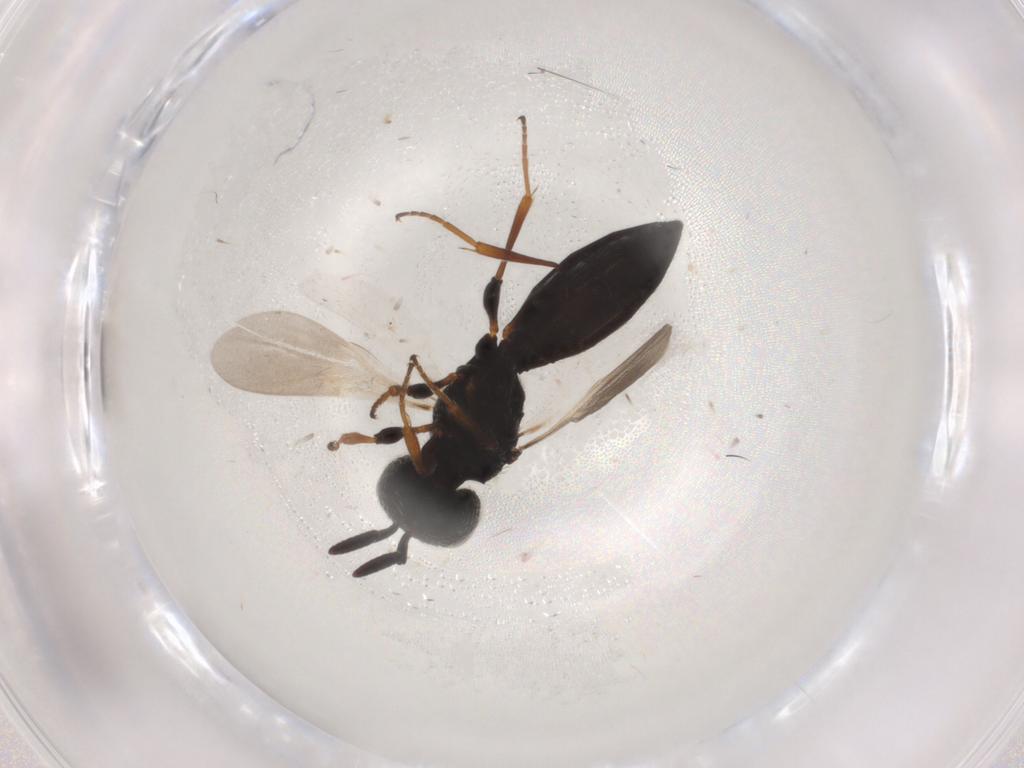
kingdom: Animalia
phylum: Arthropoda
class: Insecta
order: Hymenoptera
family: Scelionidae
